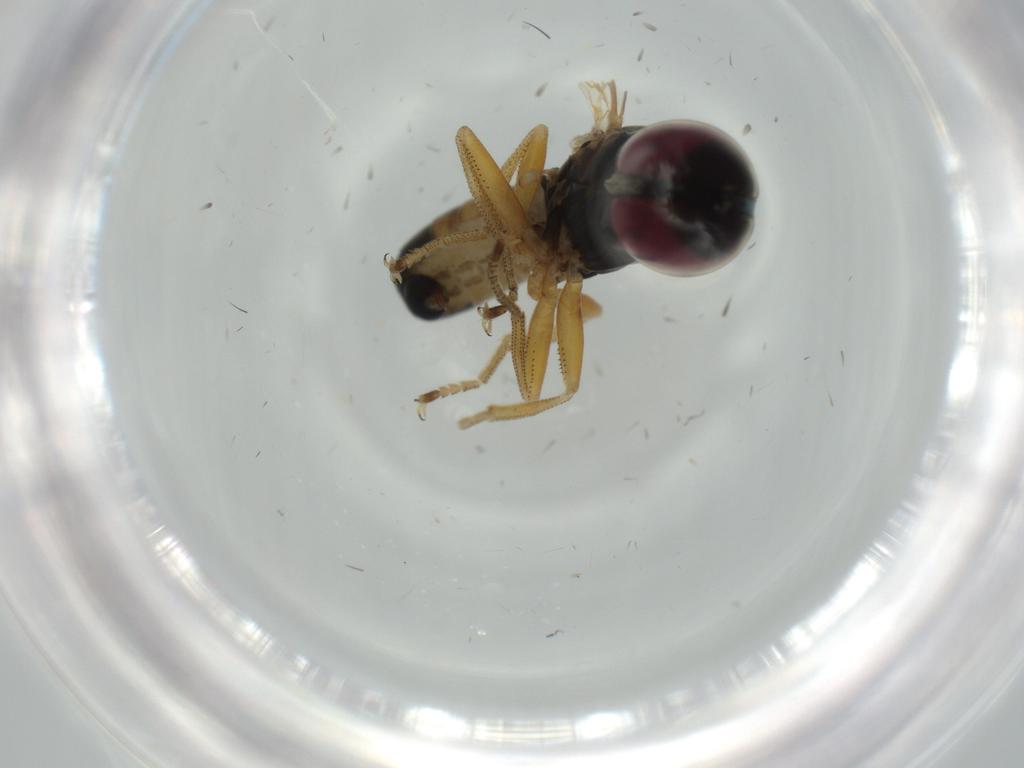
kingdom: Animalia
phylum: Arthropoda
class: Insecta
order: Diptera
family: Pipunculidae
